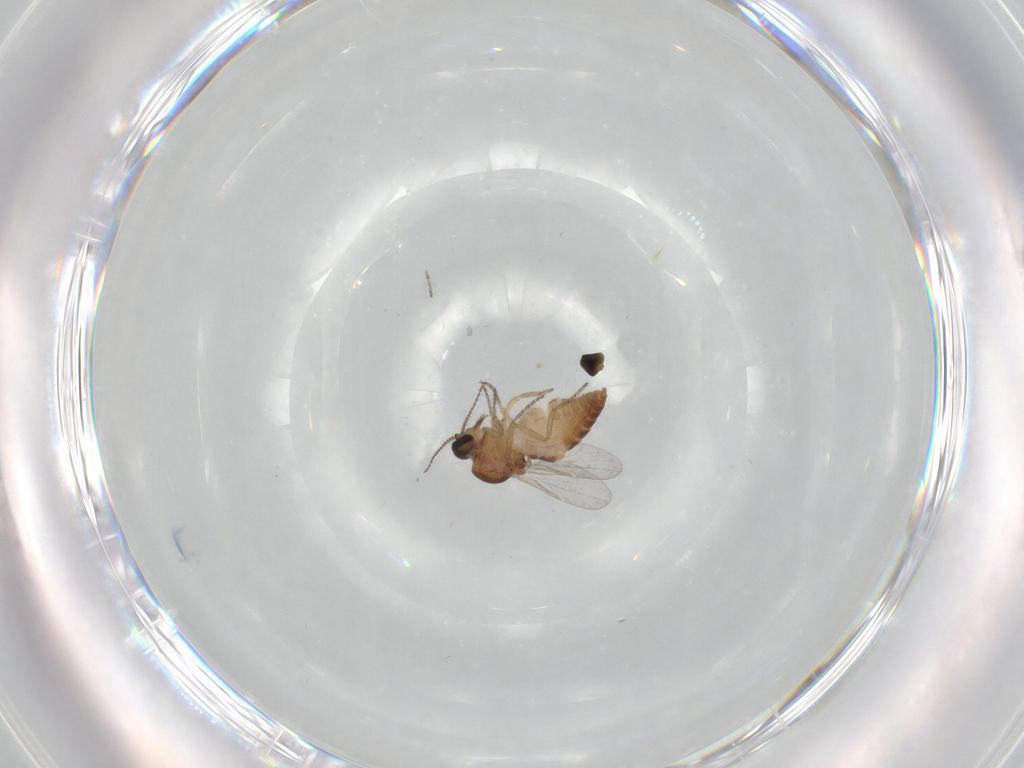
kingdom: Animalia
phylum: Arthropoda
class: Insecta
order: Diptera
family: Ceratopogonidae
